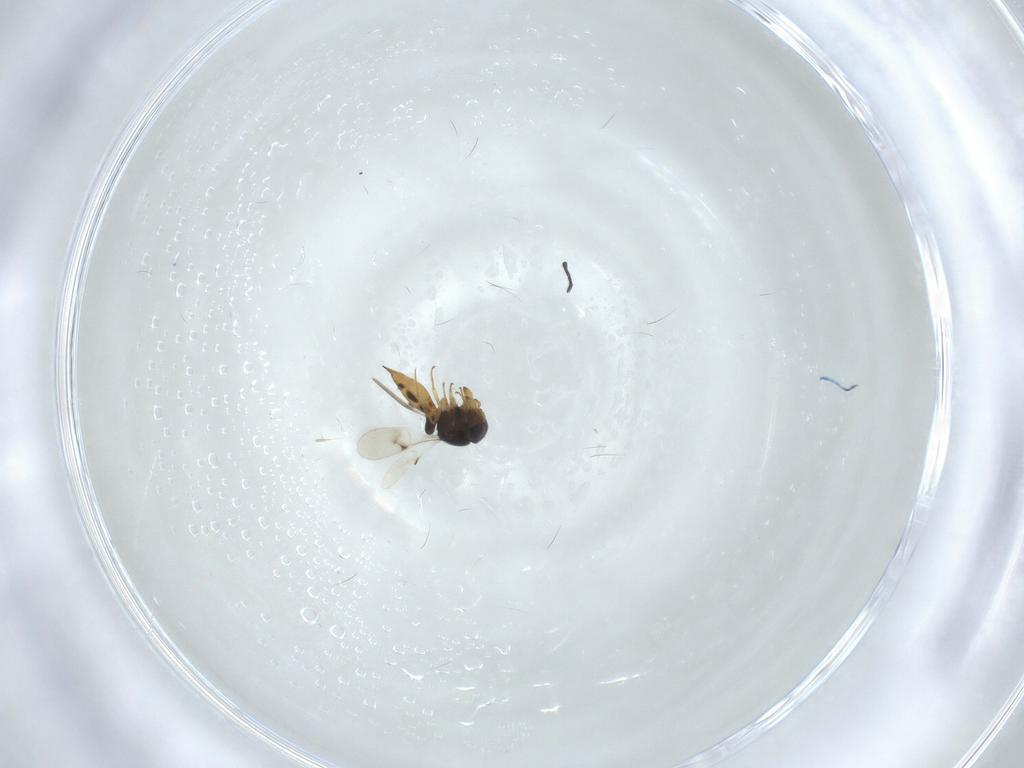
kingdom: Animalia
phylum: Arthropoda
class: Insecta
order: Hymenoptera
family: Scelionidae
